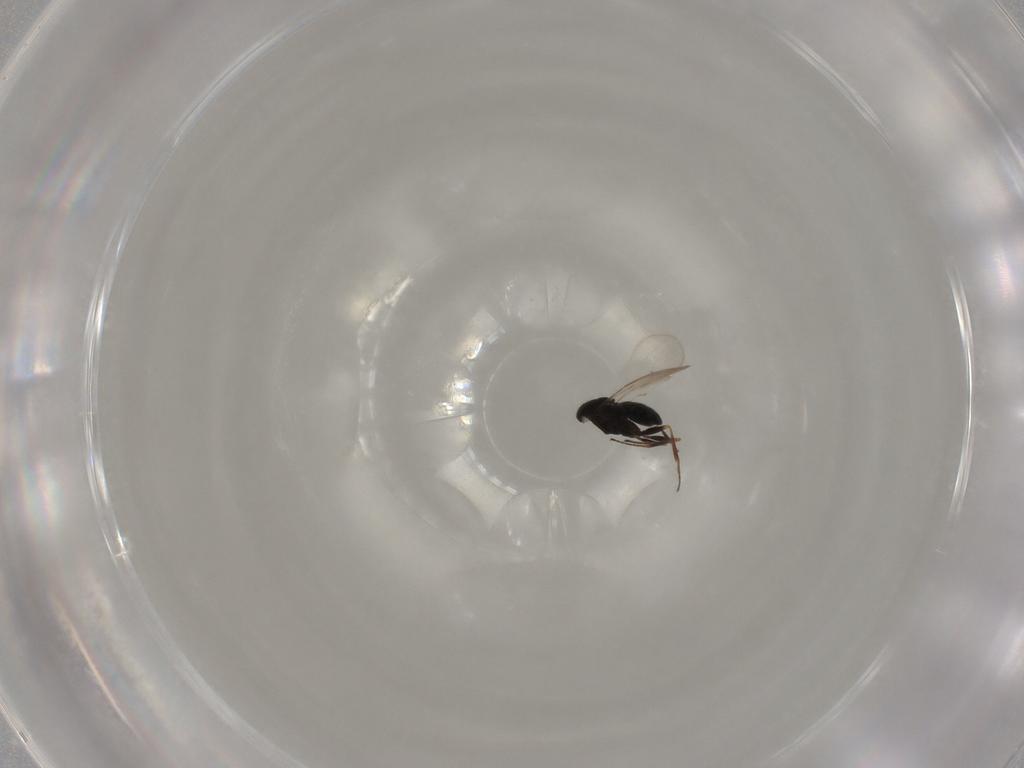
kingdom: Animalia
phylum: Arthropoda
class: Insecta
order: Hymenoptera
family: Scelionidae
